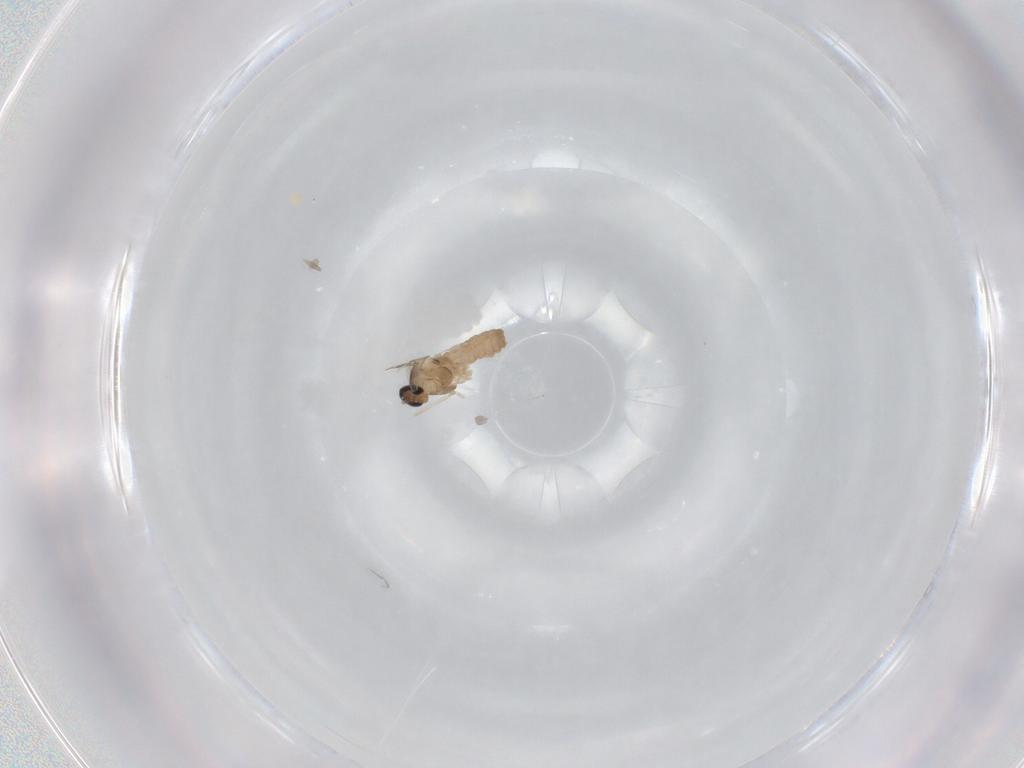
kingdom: Animalia
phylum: Arthropoda
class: Insecta
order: Diptera
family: Cecidomyiidae
